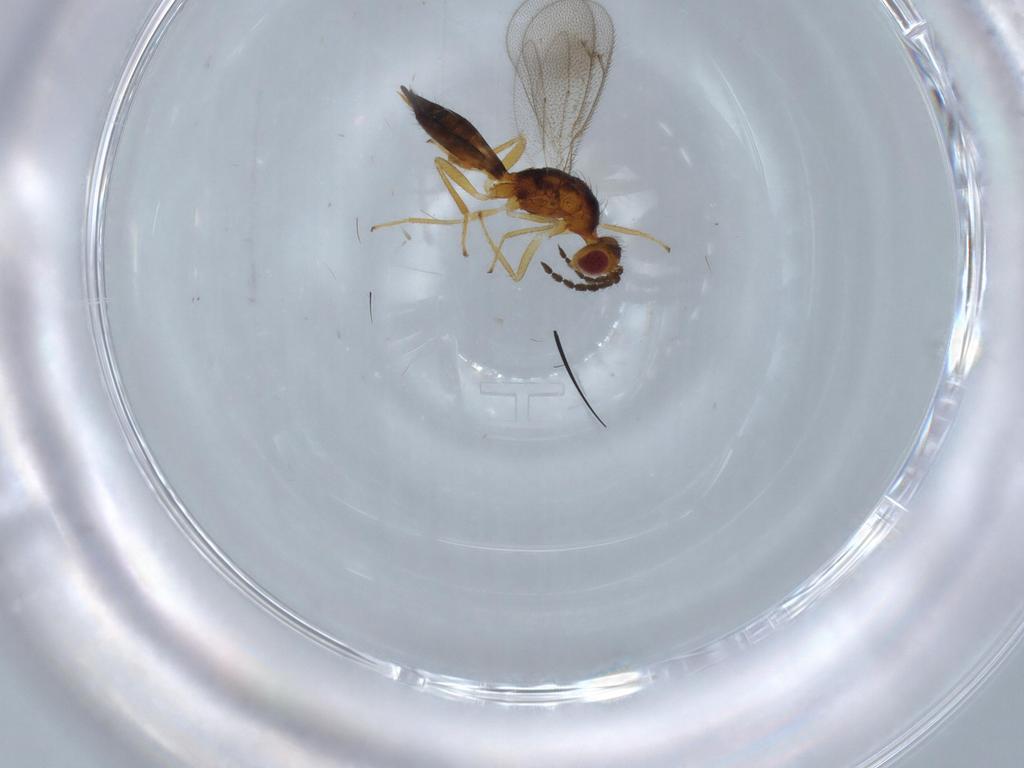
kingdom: Animalia
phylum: Arthropoda
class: Insecta
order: Hymenoptera
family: Eulophidae
